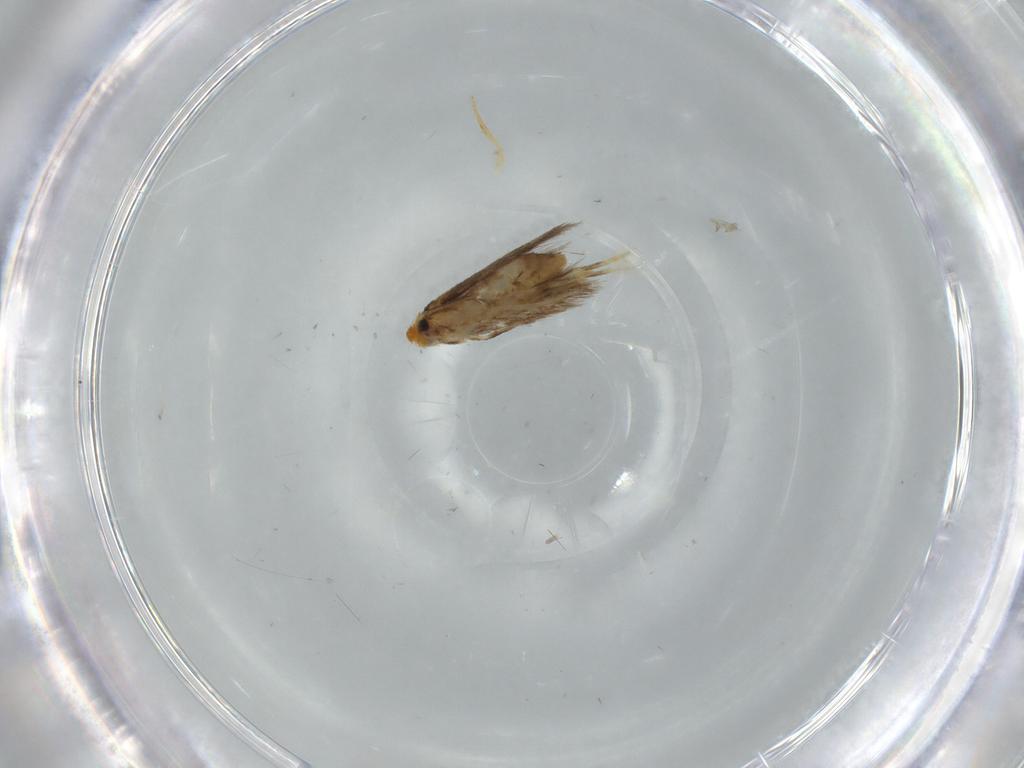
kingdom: Animalia
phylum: Arthropoda
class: Insecta
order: Lepidoptera
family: Nepticulidae
